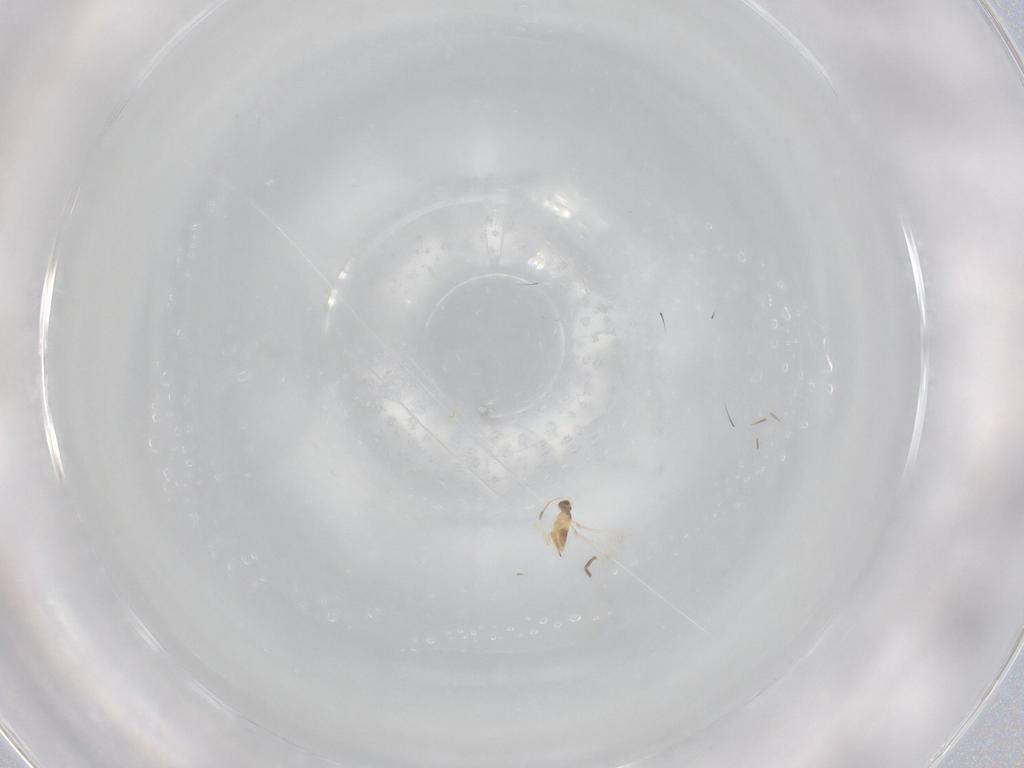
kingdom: Animalia
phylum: Arthropoda
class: Insecta
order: Hymenoptera
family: Mymaridae
